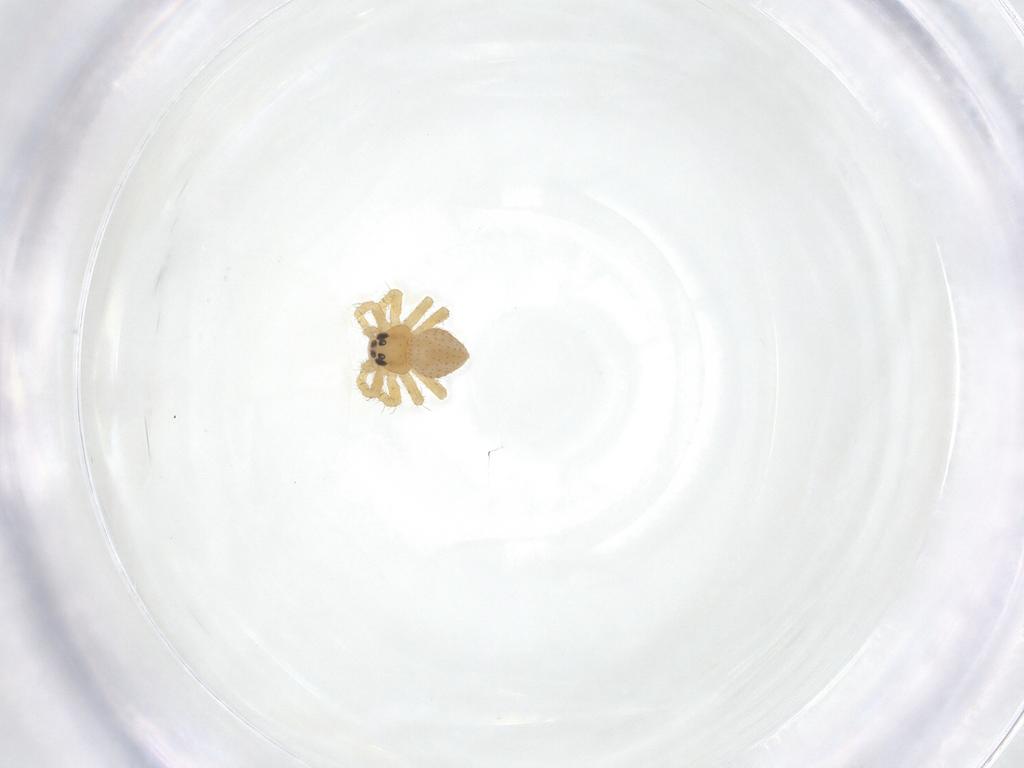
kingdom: Animalia
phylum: Arthropoda
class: Arachnida
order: Araneae
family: Theridiidae
